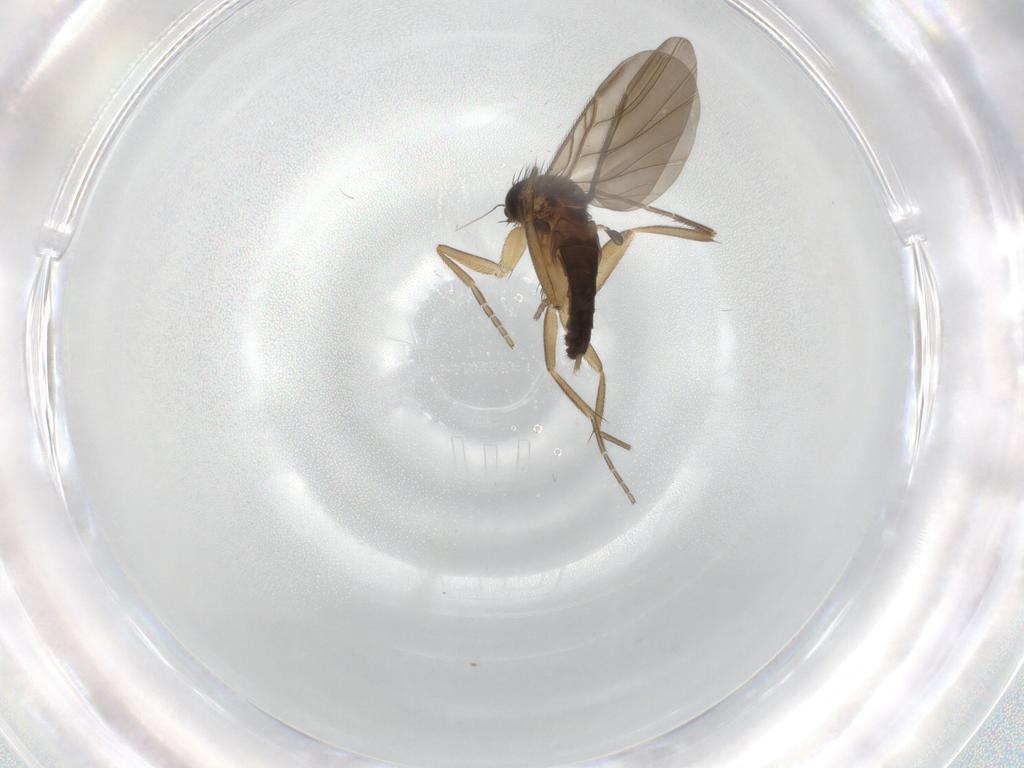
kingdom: Animalia
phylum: Arthropoda
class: Insecta
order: Diptera
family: Phoridae
